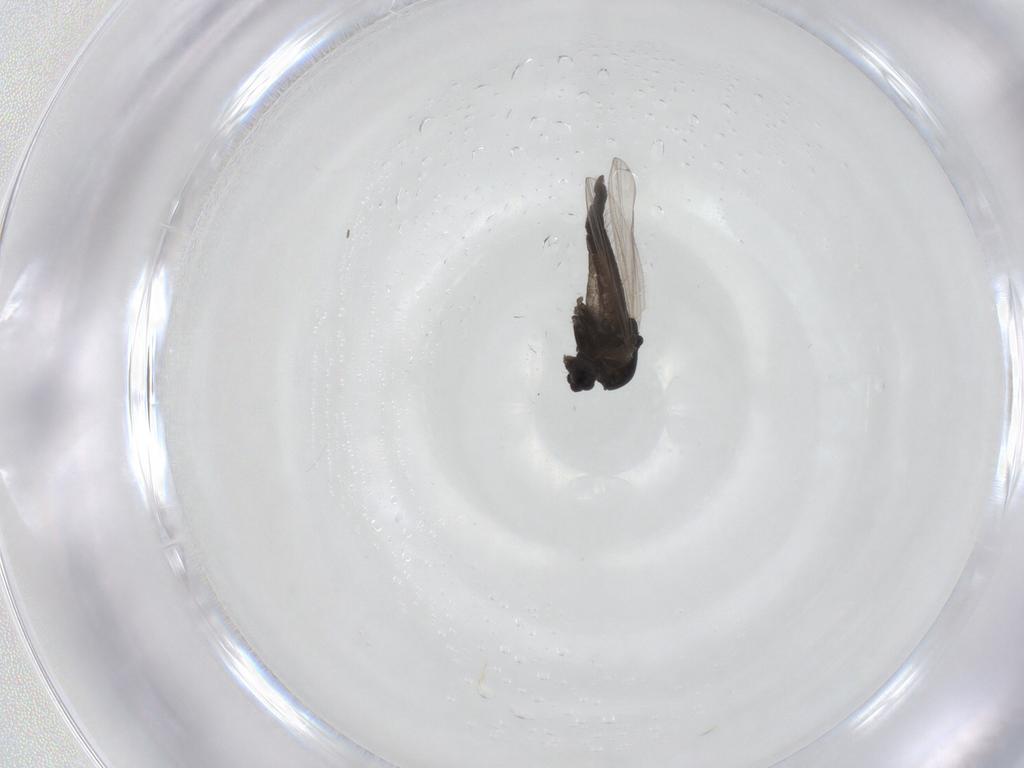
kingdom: Animalia
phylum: Arthropoda
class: Insecta
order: Diptera
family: Chironomidae
